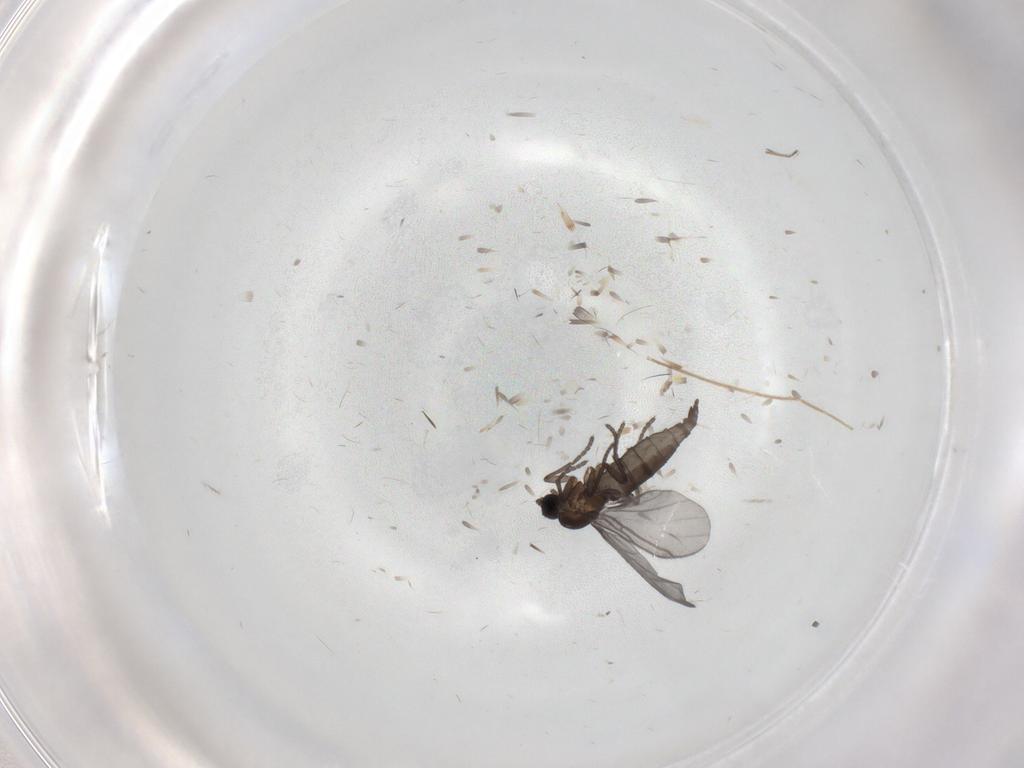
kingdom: Animalia
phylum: Arthropoda
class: Insecta
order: Diptera
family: Ceratopogonidae
